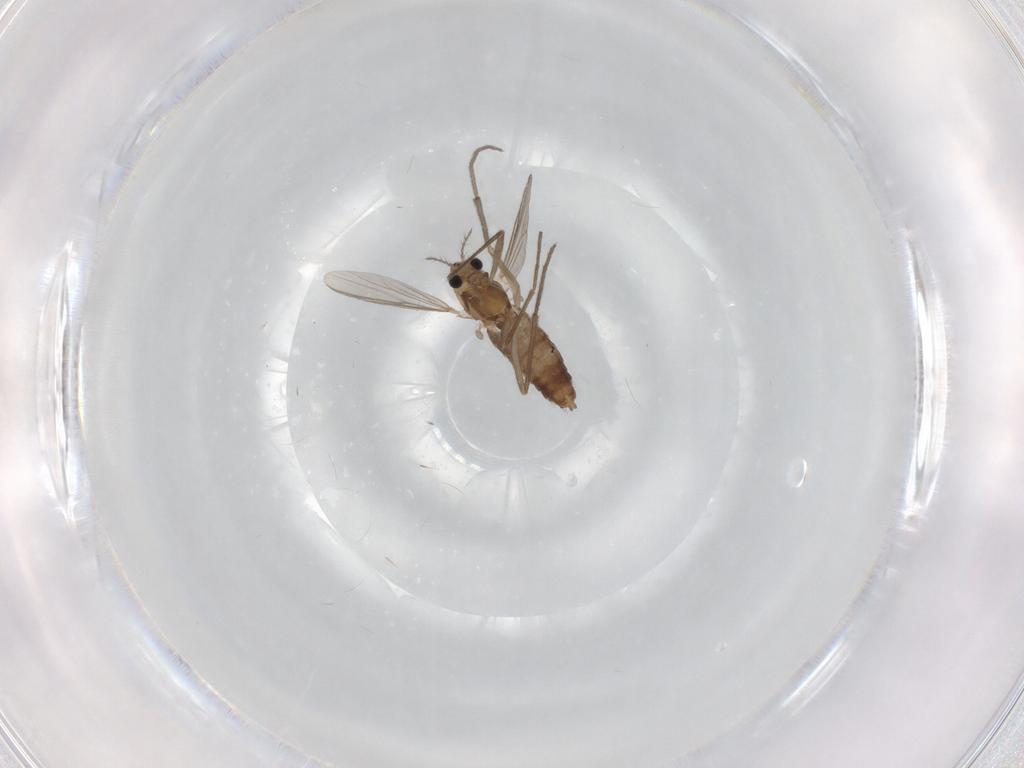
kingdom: Animalia
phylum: Arthropoda
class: Insecta
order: Diptera
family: Chironomidae
